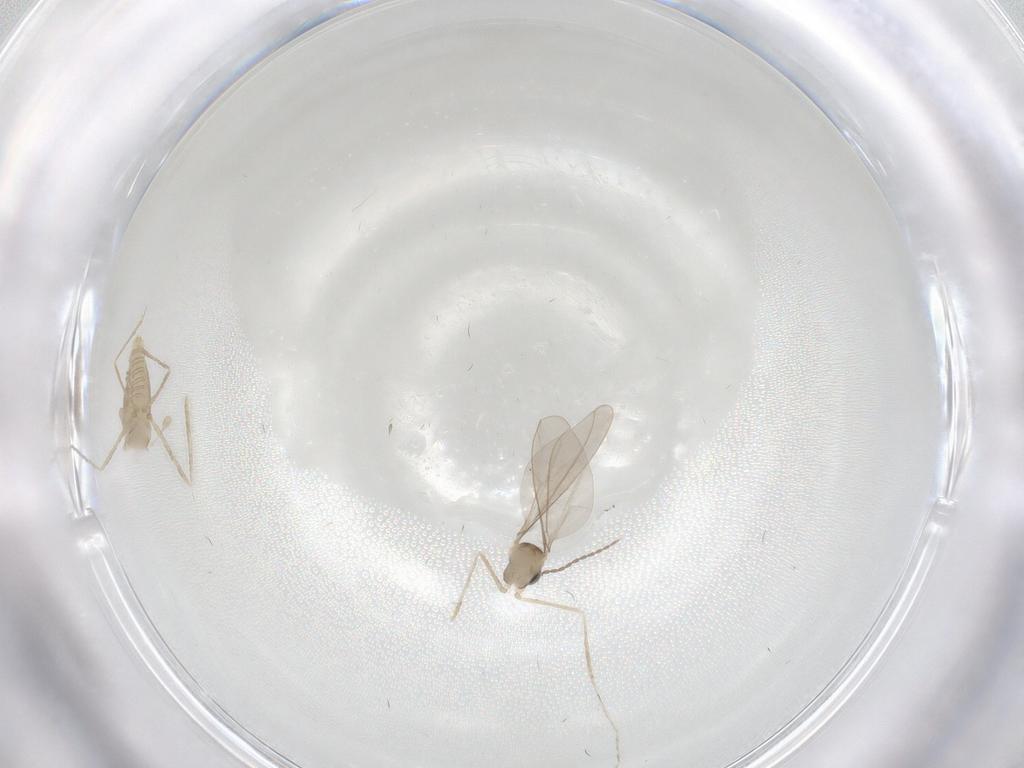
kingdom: Animalia
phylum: Arthropoda
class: Insecta
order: Diptera
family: Cecidomyiidae
